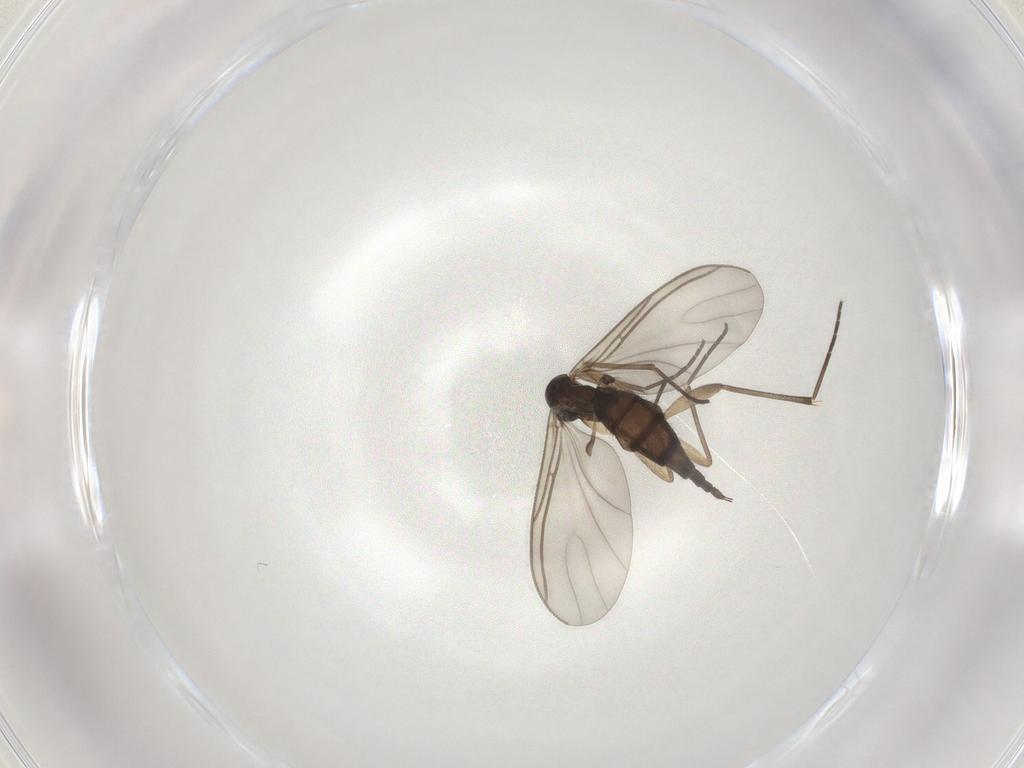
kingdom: Animalia
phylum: Arthropoda
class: Insecta
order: Diptera
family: Sciaridae
